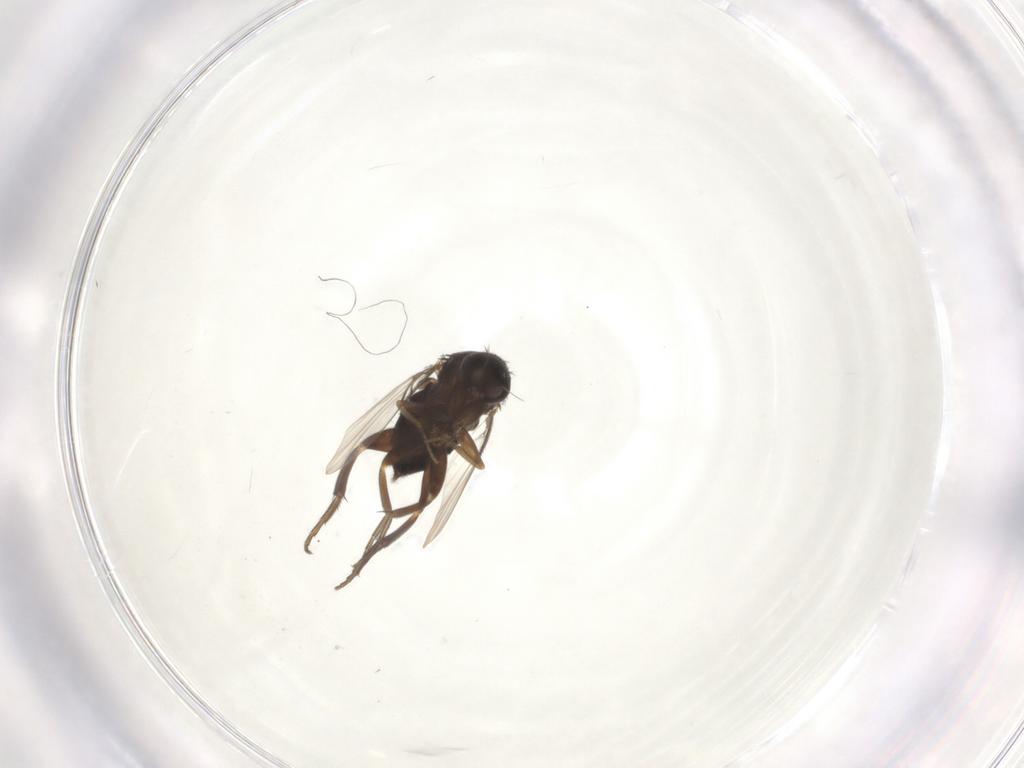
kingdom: Animalia
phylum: Arthropoda
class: Insecta
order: Diptera
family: Phoridae
